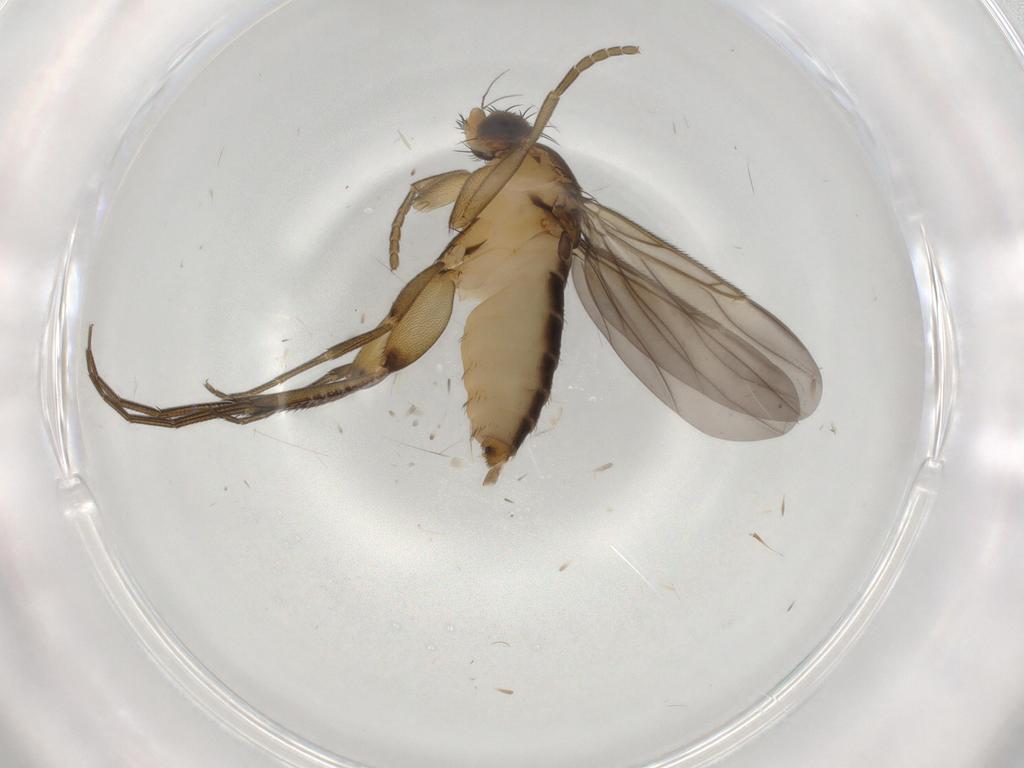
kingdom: Animalia
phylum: Arthropoda
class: Insecta
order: Diptera
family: Phoridae
